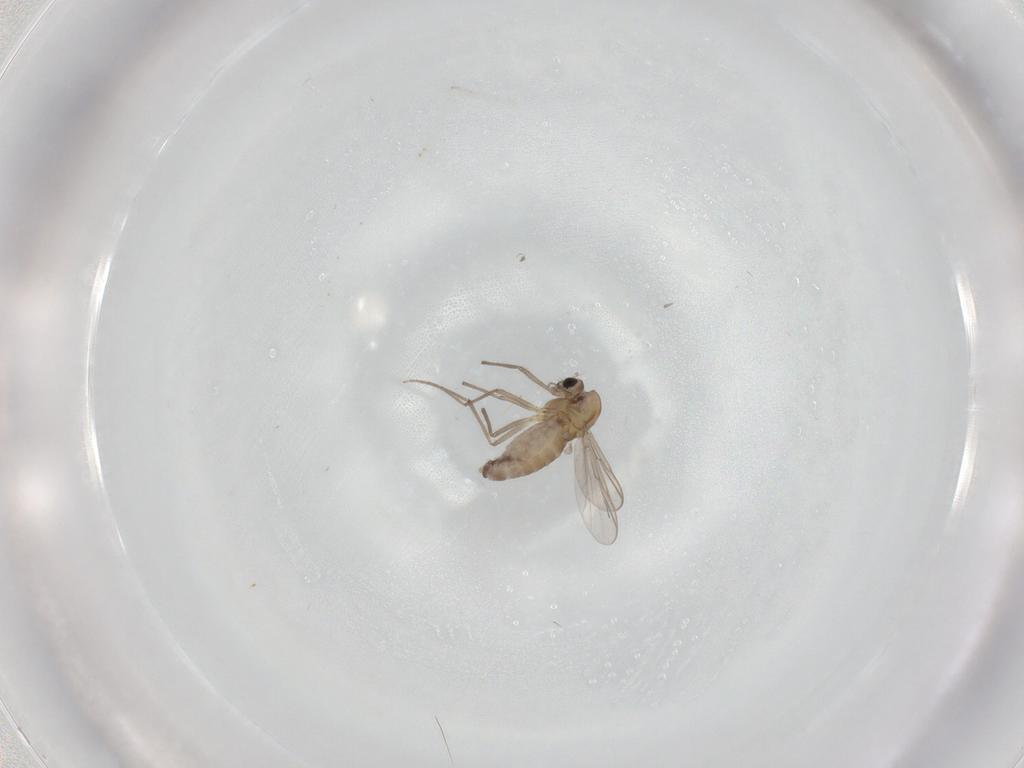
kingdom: Animalia
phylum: Arthropoda
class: Insecta
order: Diptera
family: Chironomidae
